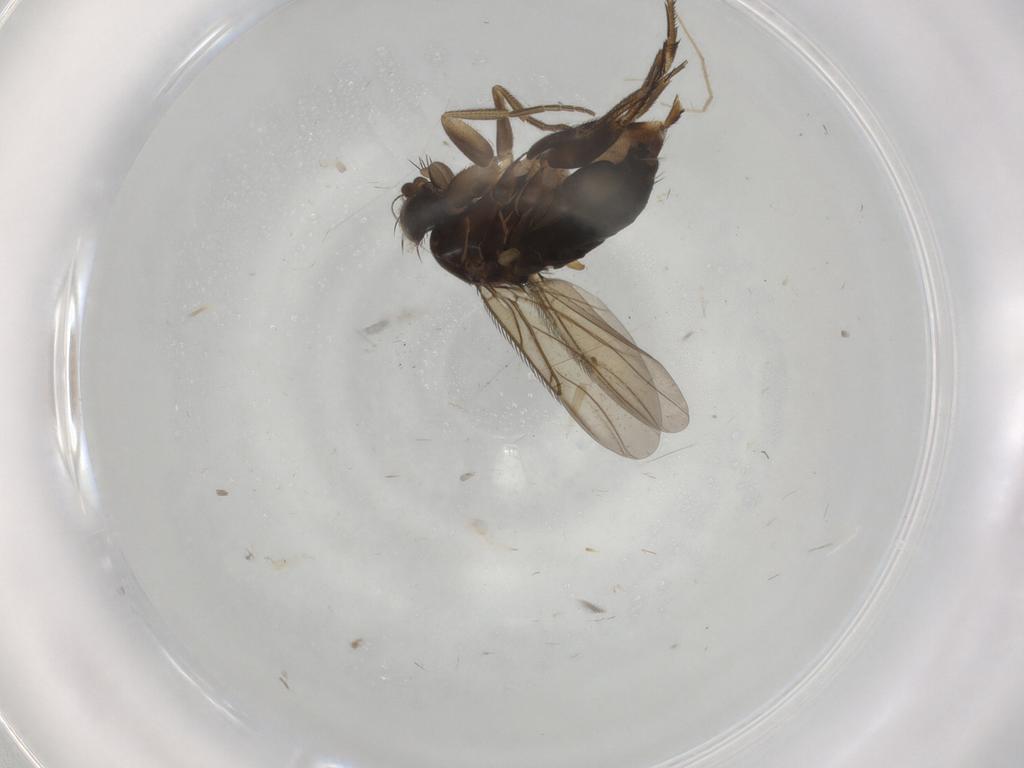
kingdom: Animalia
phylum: Arthropoda
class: Insecta
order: Diptera
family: Phoridae
